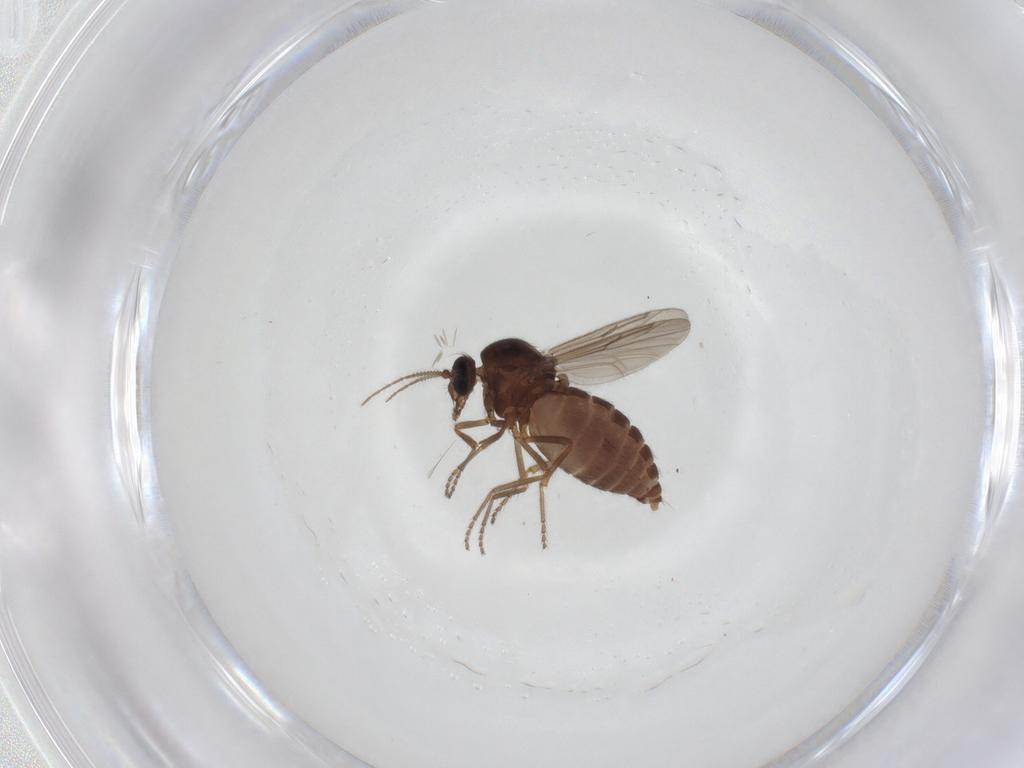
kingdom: Animalia
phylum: Arthropoda
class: Insecta
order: Diptera
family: Ceratopogonidae
